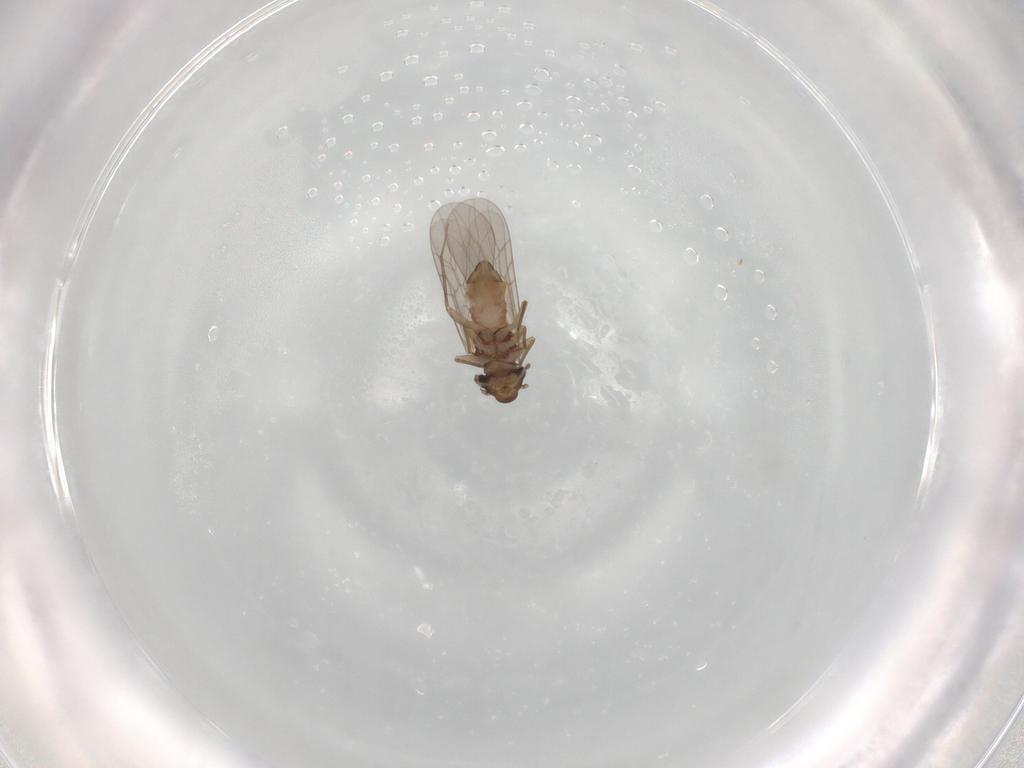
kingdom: Animalia
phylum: Arthropoda
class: Insecta
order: Psocodea
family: Lepidopsocidae
